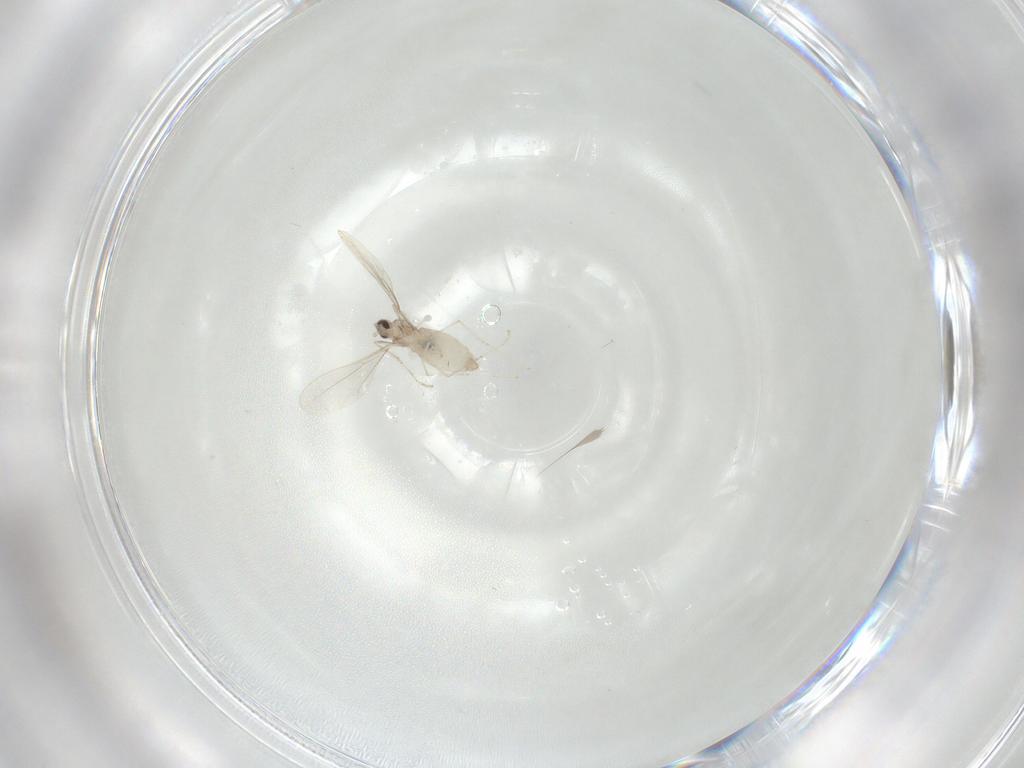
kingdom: Animalia
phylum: Arthropoda
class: Insecta
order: Diptera
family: Cecidomyiidae
